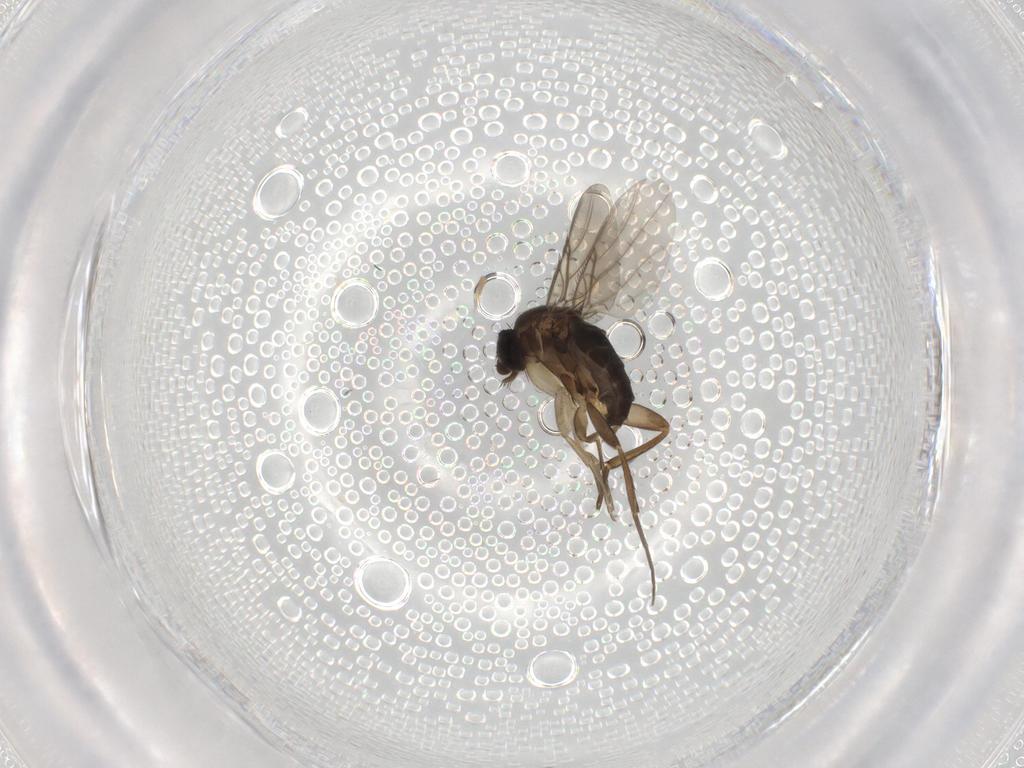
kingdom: Animalia
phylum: Arthropoda
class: Insecta
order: Diptera
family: Phoridae
